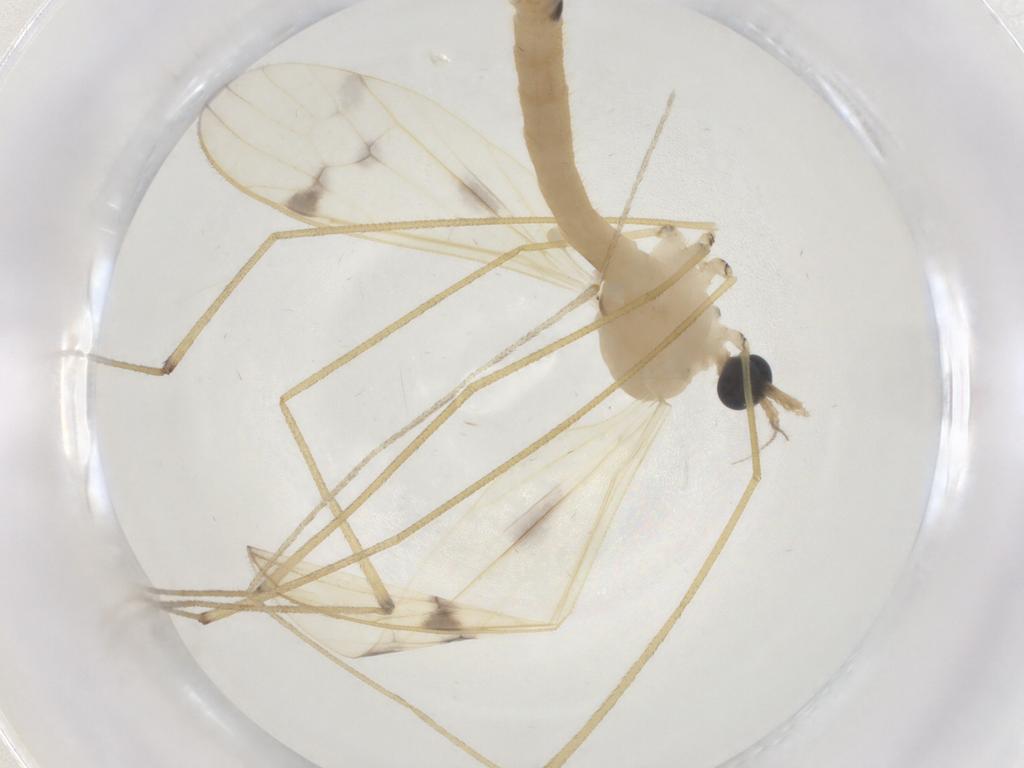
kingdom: Animalia
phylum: Arthropoda
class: Insecta
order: Diptera
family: Limoniidae
